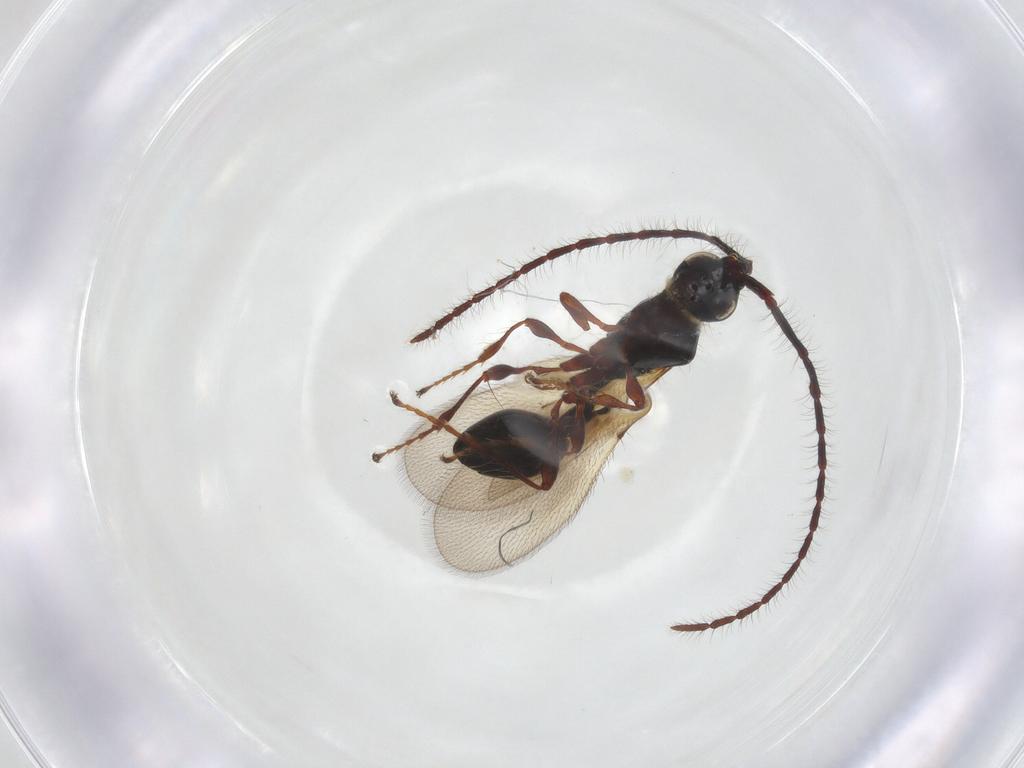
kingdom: Animalia
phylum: Arthropoda
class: Insecta
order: Hymenoptera
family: Diapriidae
